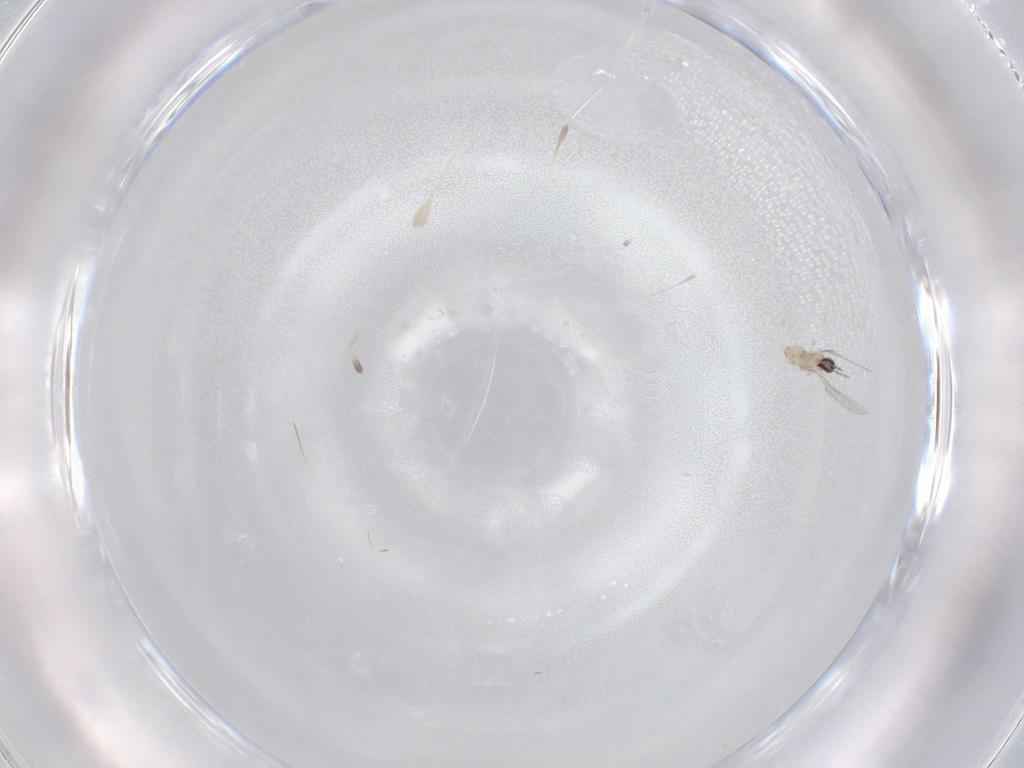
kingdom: Animalia
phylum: Arthropoda
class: Insecta
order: Diptera
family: Cecidomyiidae
